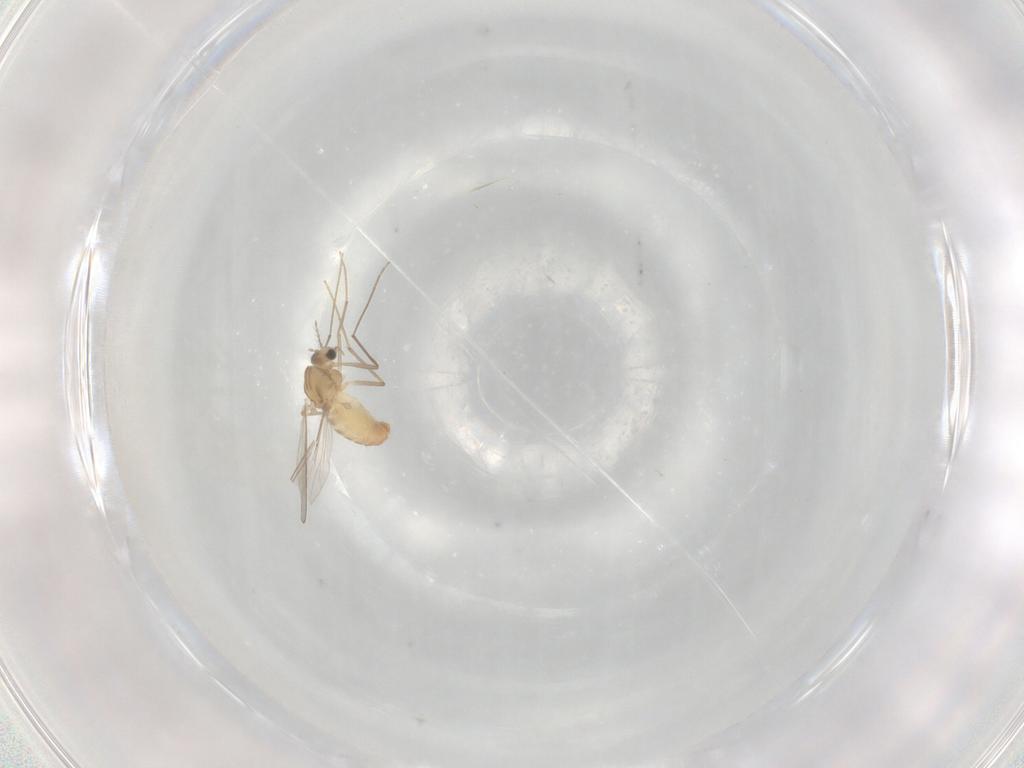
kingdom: Animalia
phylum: Arthropoda
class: Insecta
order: Diptera
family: Chironomidae
